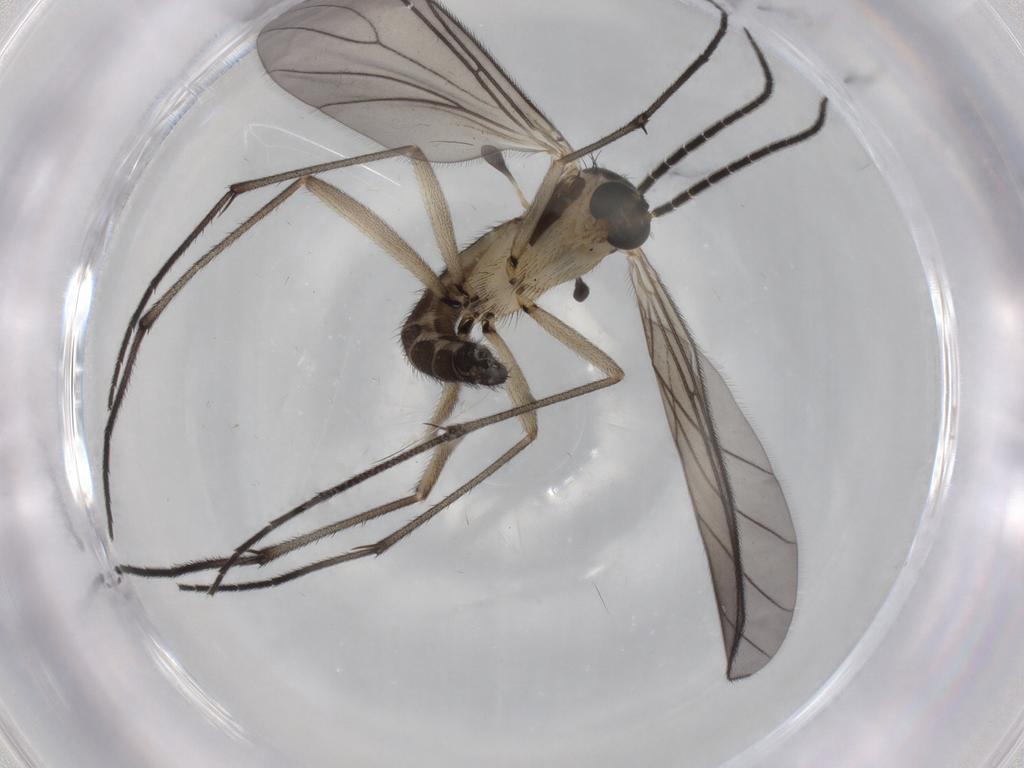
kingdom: Animalia
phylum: Arthropoda
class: Insecta
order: Diptera
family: Sciaridae
